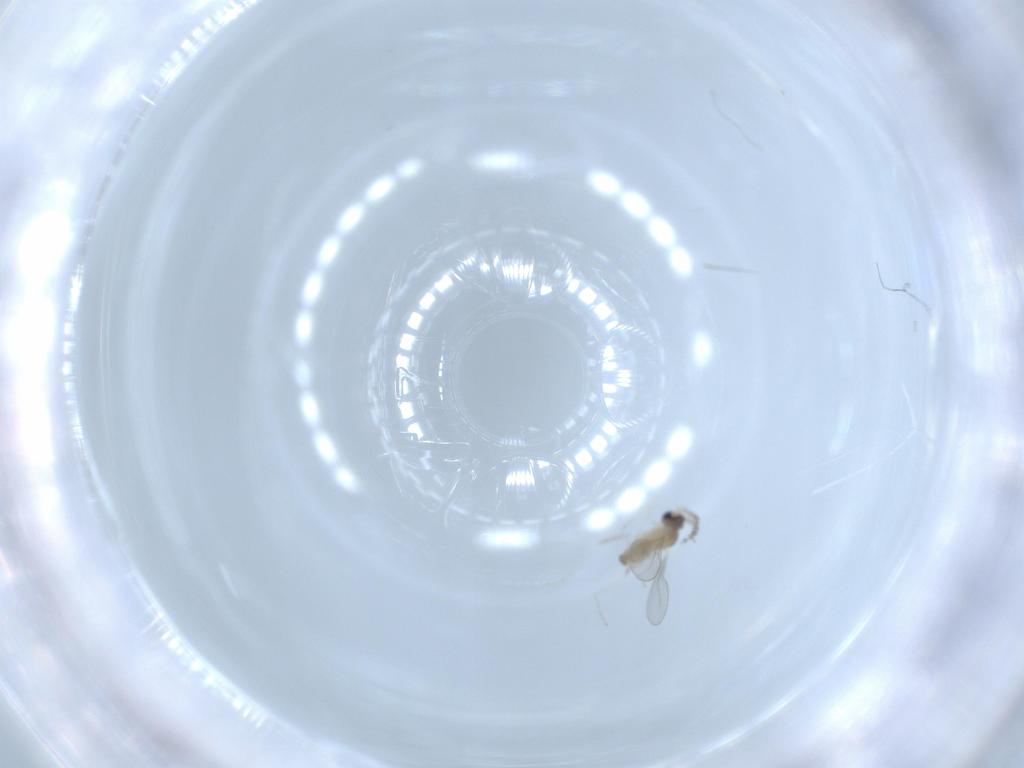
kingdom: Animalia
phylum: Arthropoda
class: Insecta
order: Diptera
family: Cecidomyiidae
